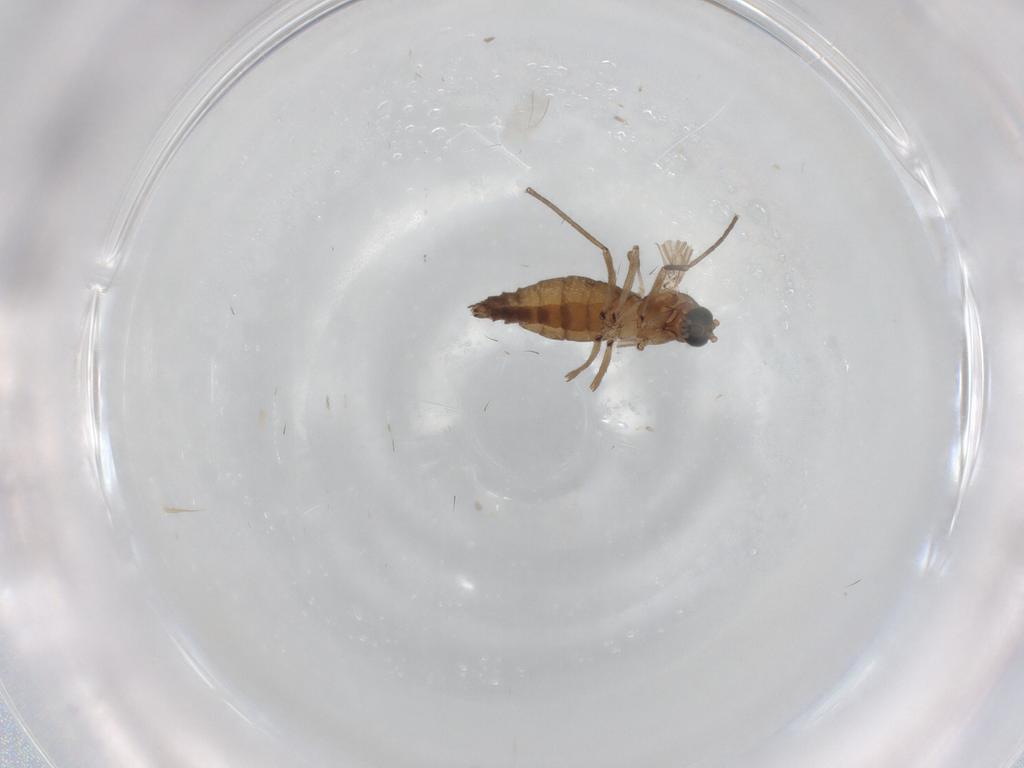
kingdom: Animalia
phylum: Arthropoda
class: Insecta
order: Diptera
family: Sciaridae
